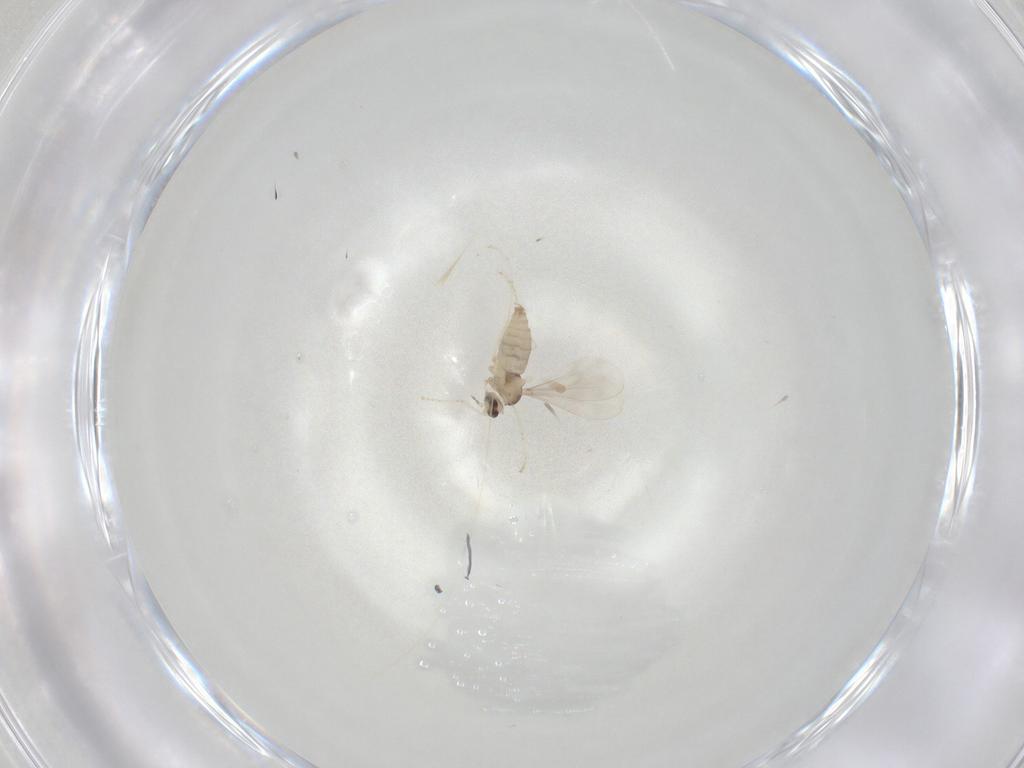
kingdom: Animalia
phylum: Arthropoda
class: Insecta
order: Diptera
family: Cecidomyiidae
